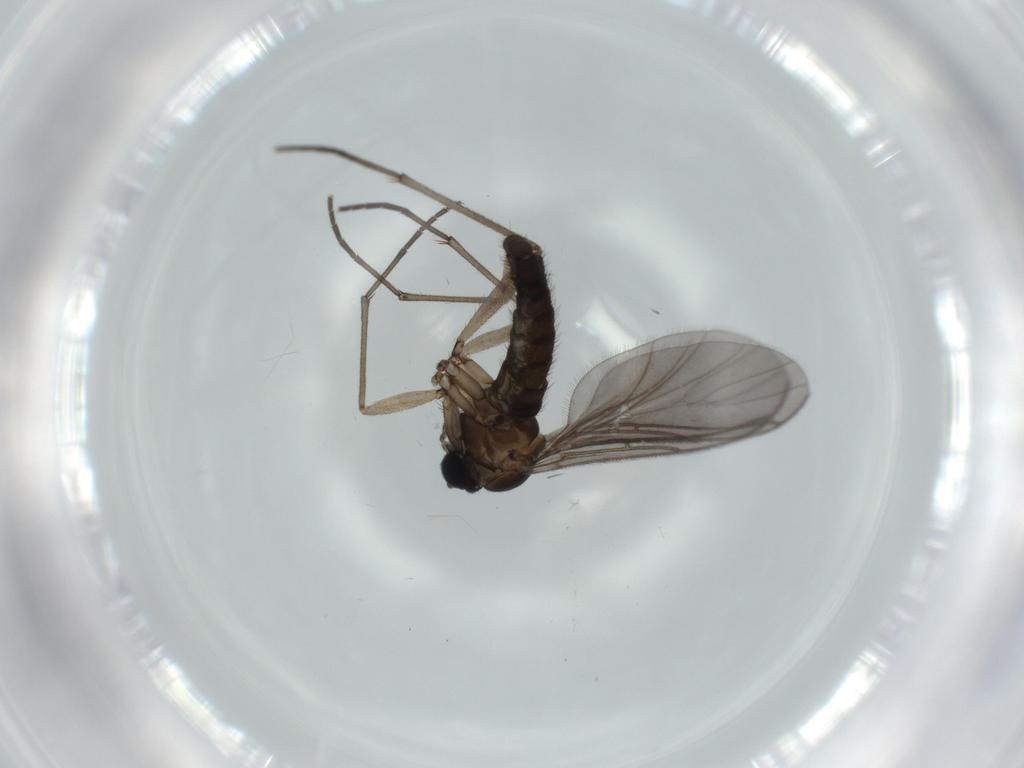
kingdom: Animalia
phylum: Arthropoda
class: Insecta
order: Diptera
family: Sciaridae
